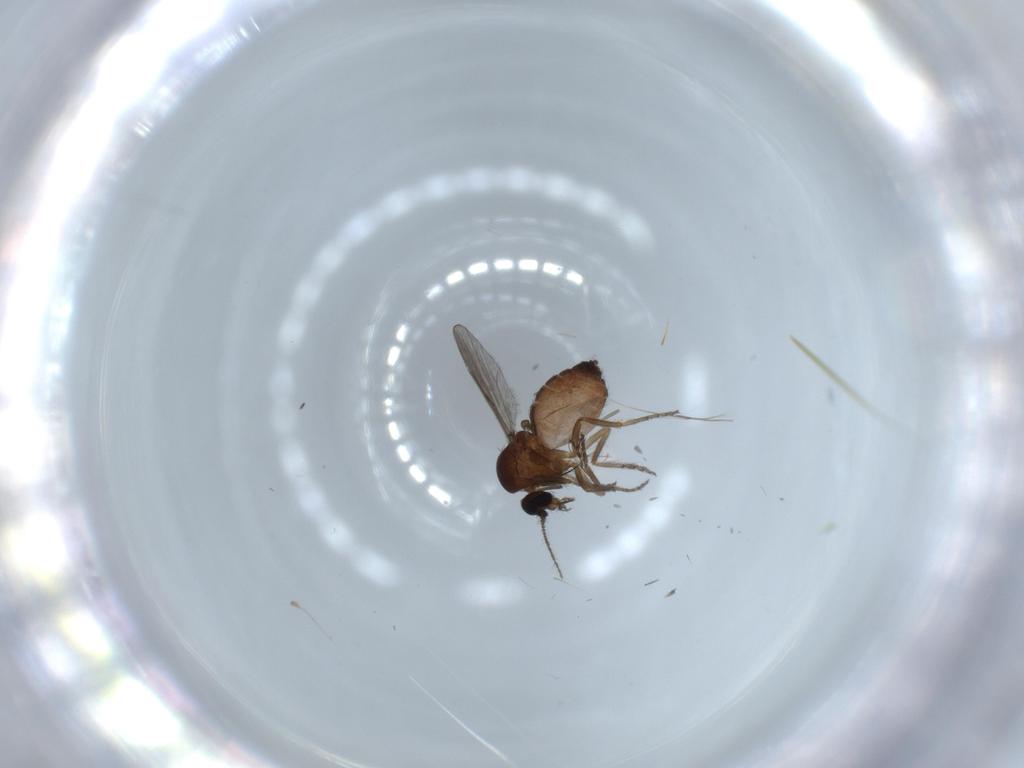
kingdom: Animalia
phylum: Arthropoda
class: Insecta
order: Diptera
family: Hybotidae
